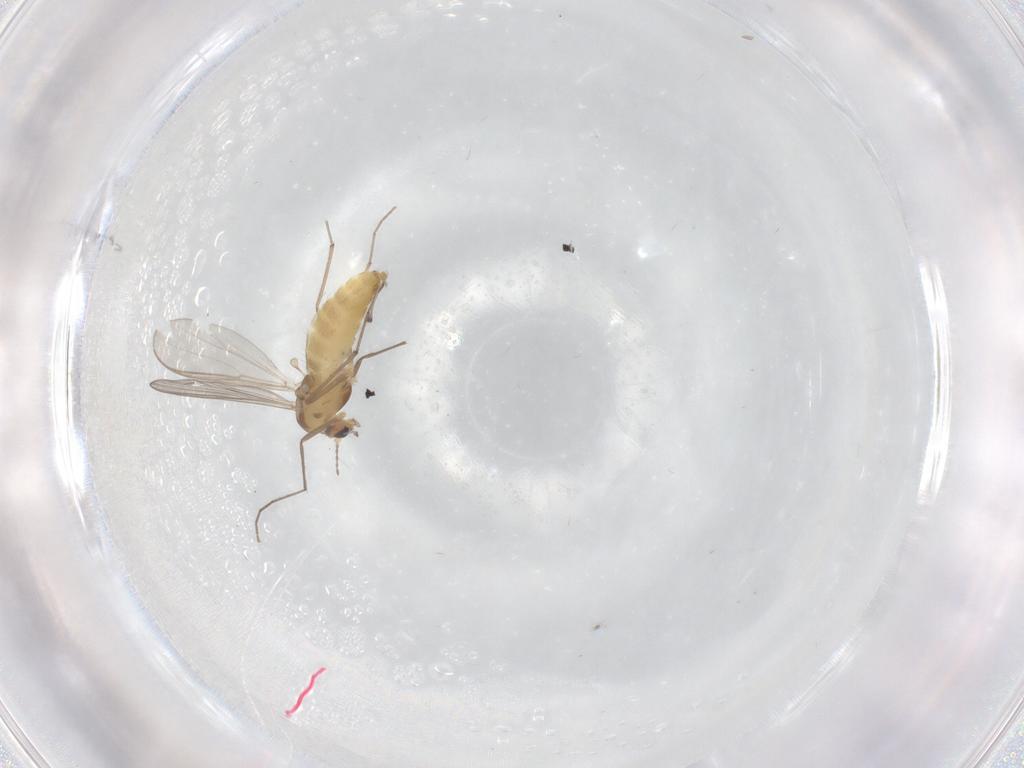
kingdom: Animalia
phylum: Arthropoda
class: Insecta
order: Diptera
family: Chironomidae
